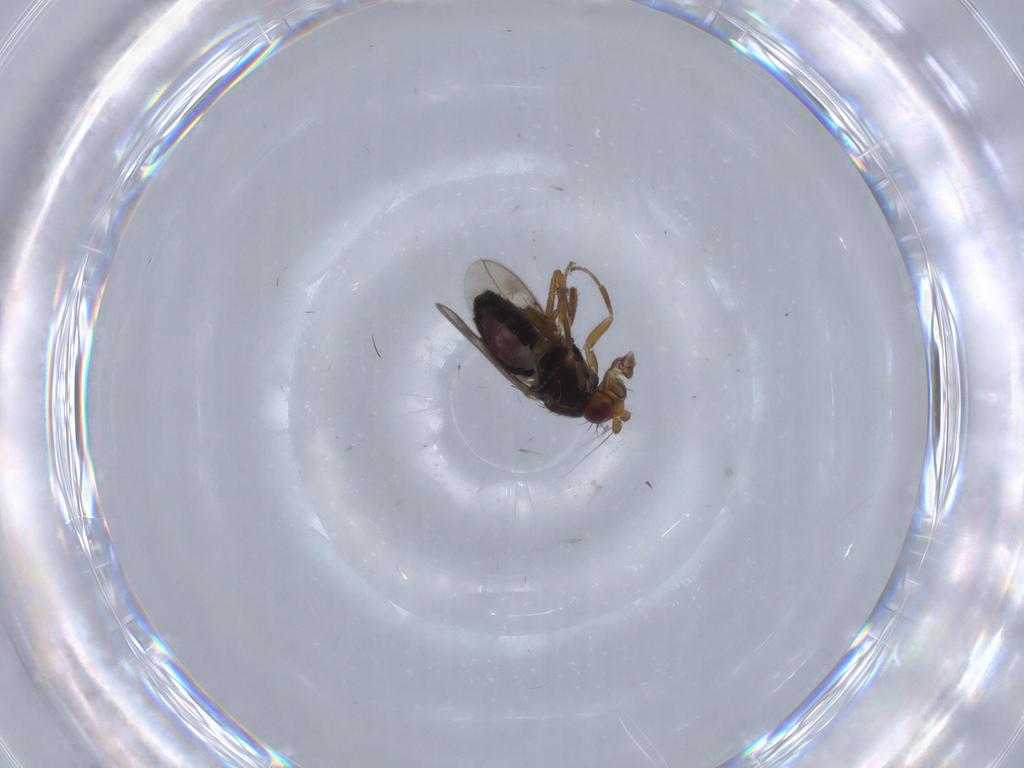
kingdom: Animalia
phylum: Arthropoda
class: Insecta
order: Diptera
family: Sphaeroceridae
